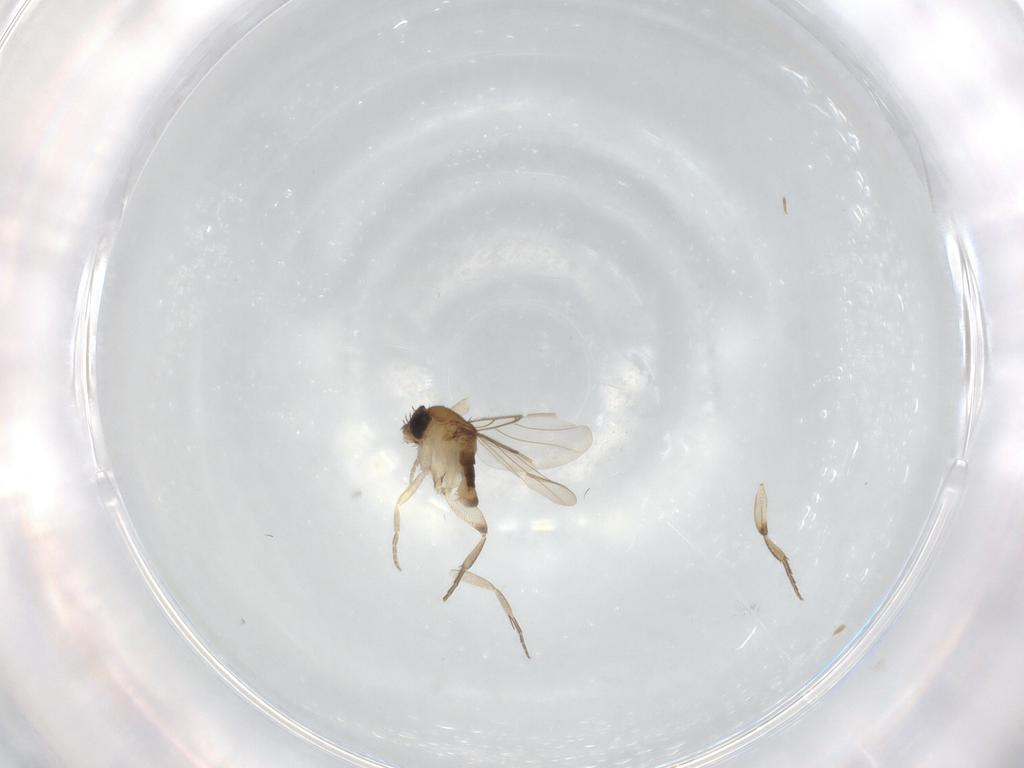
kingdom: Animalia
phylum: Arthropoda
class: Insecta
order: Diptera
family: Phoridae
